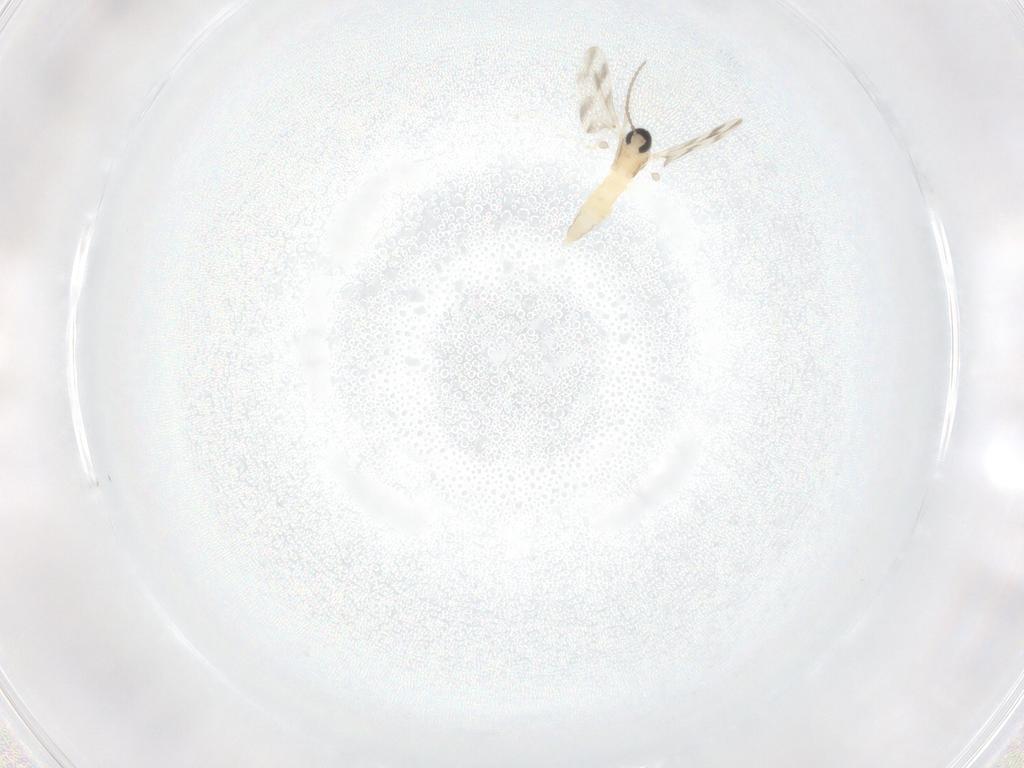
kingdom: Animalia
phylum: Arthropoda
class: Insecta
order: Diptera
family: Cecidomyiidae
